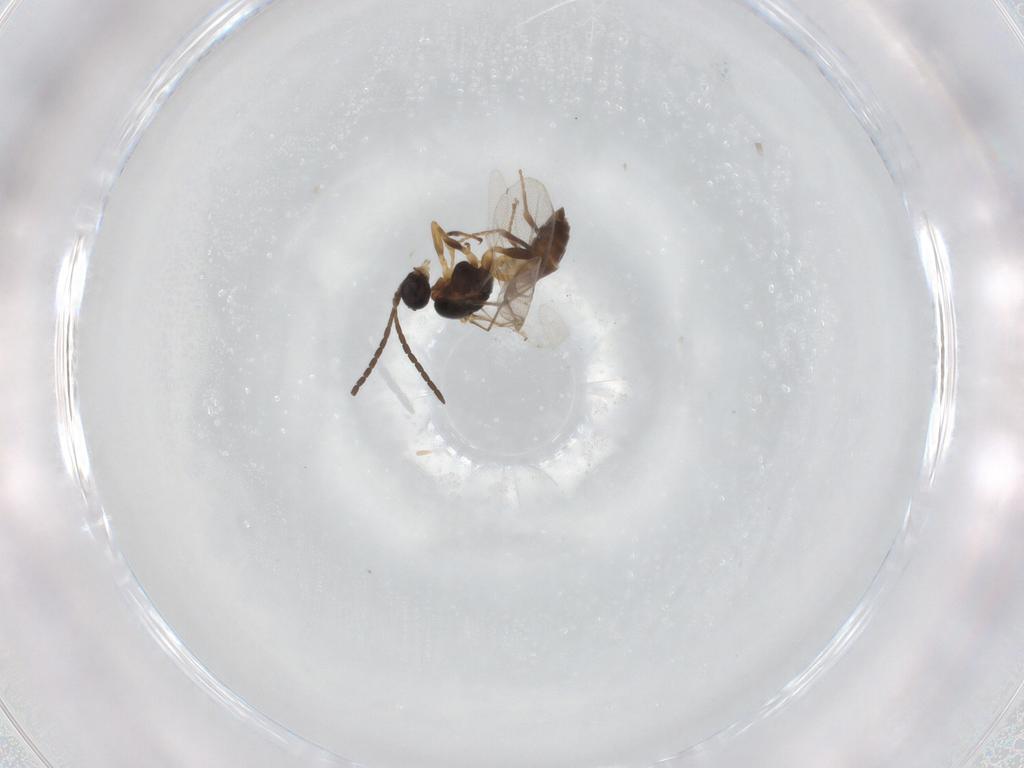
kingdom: Animalia
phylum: Arthropoda
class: Insecta
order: Hymenoptera
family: Braconidae
